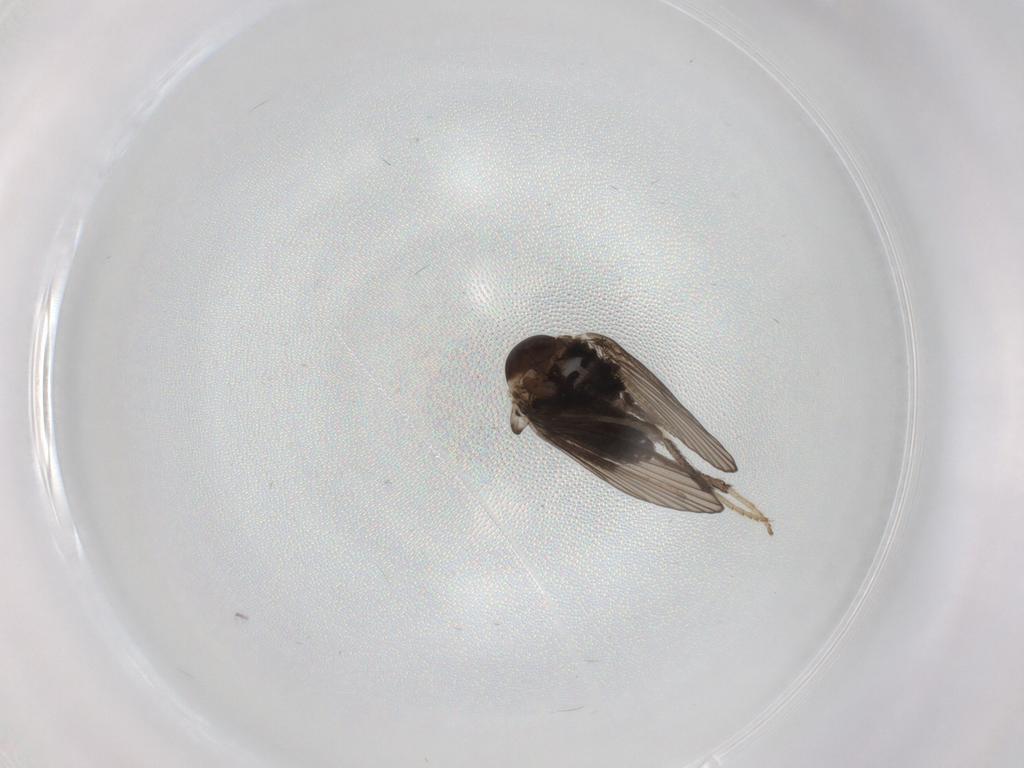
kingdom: Animalia
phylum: Arthropoda
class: Insecta
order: Diptera
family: Psychodidae
